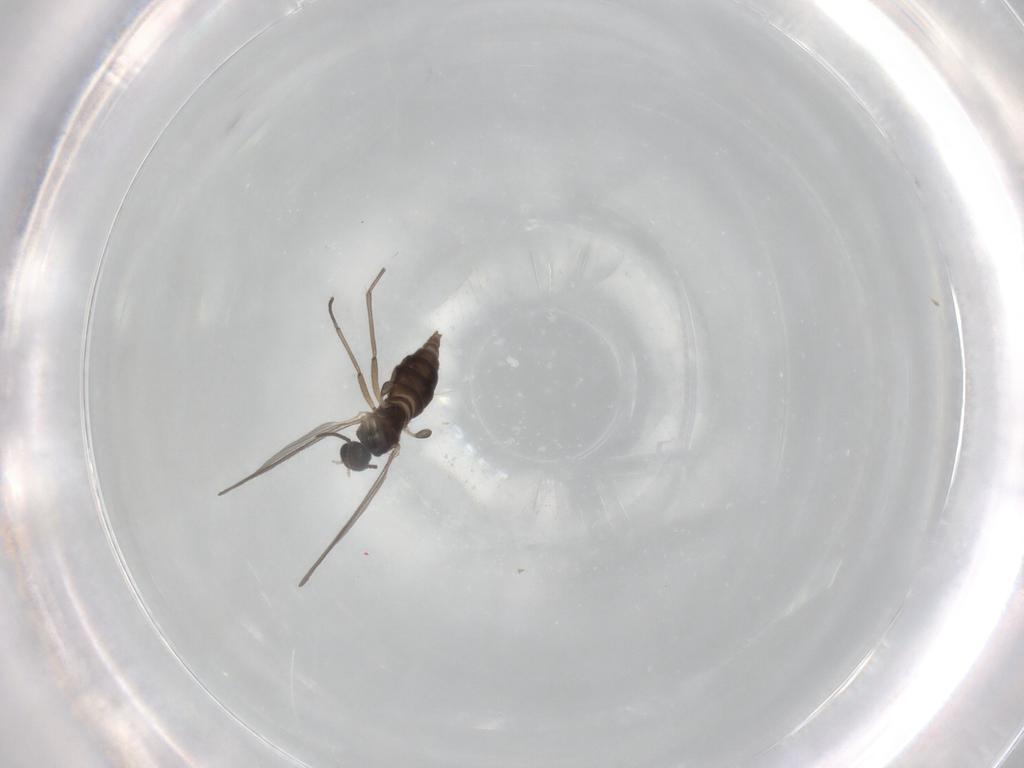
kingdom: Animalia
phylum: Arthropoda
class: Insecta
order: Diptera
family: Sciaridae
